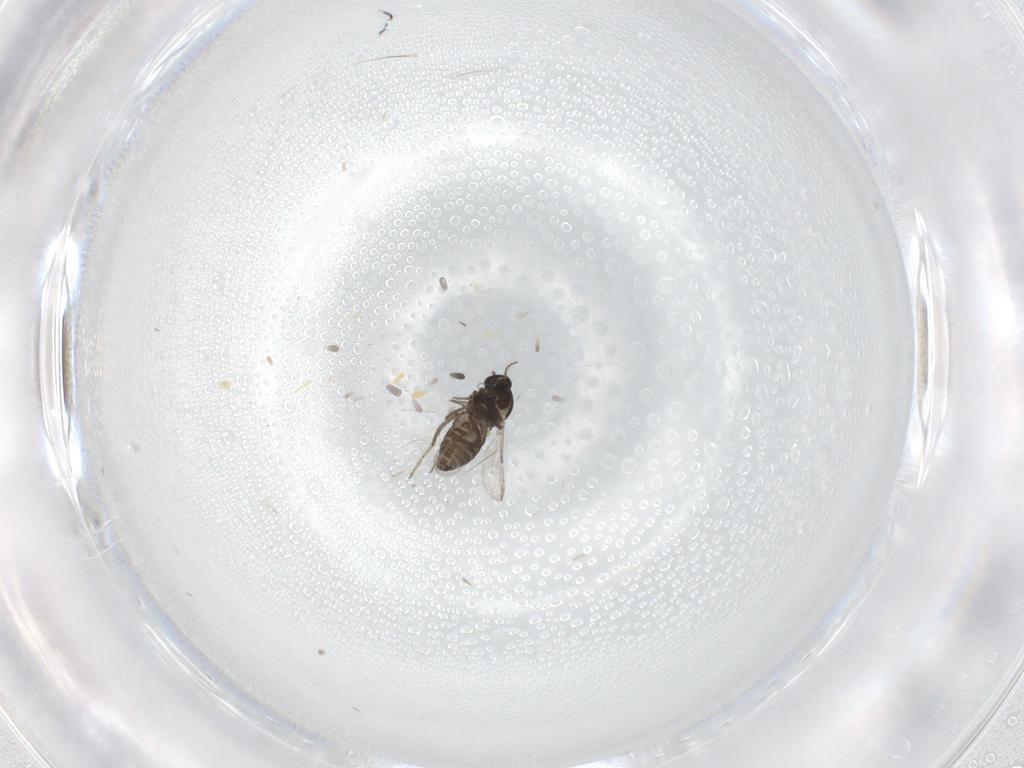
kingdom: Animalia
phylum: Arthropoda
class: Insecta
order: Diptera
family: Ceratopogonidae
